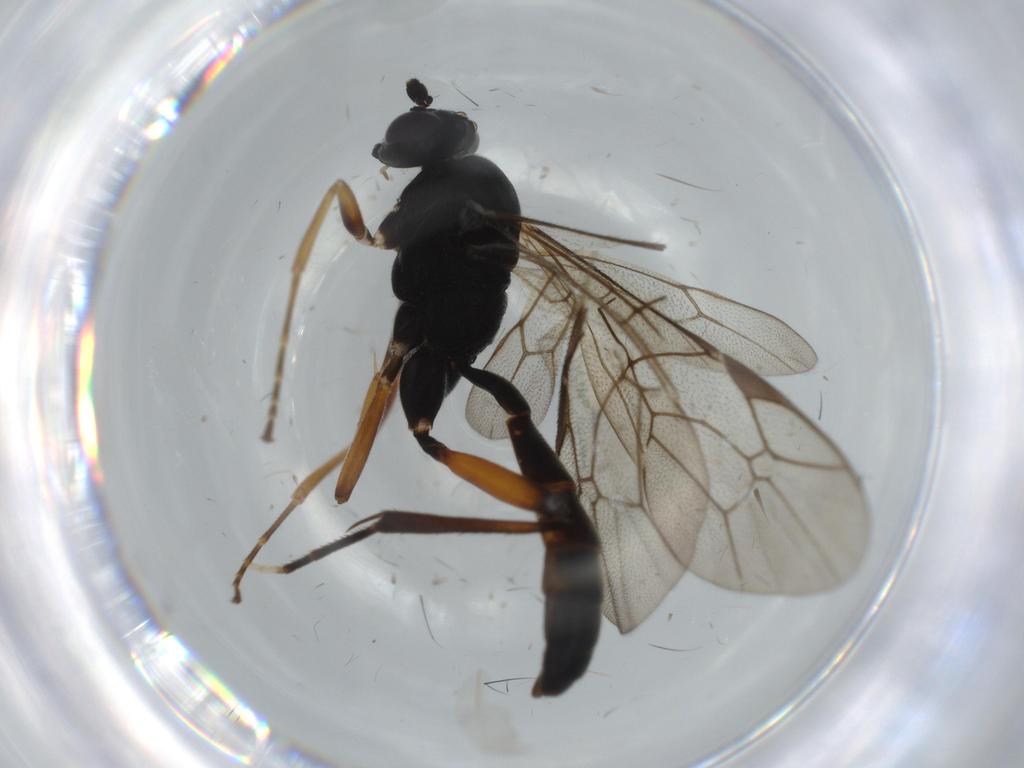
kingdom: Animalia
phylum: Arthropoda
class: Insecta
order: Hymenoptera
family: Ichneumonidae
